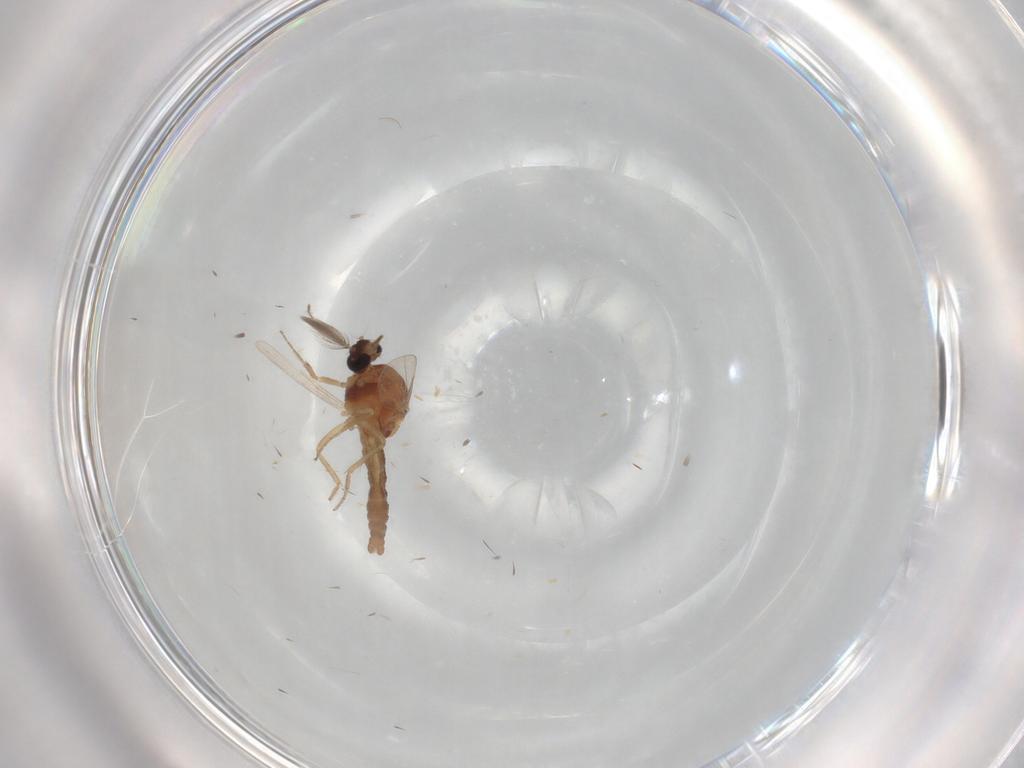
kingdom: Animalia
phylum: Arthropoda
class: Insecta
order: Diptera
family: Ceratopogonidae
